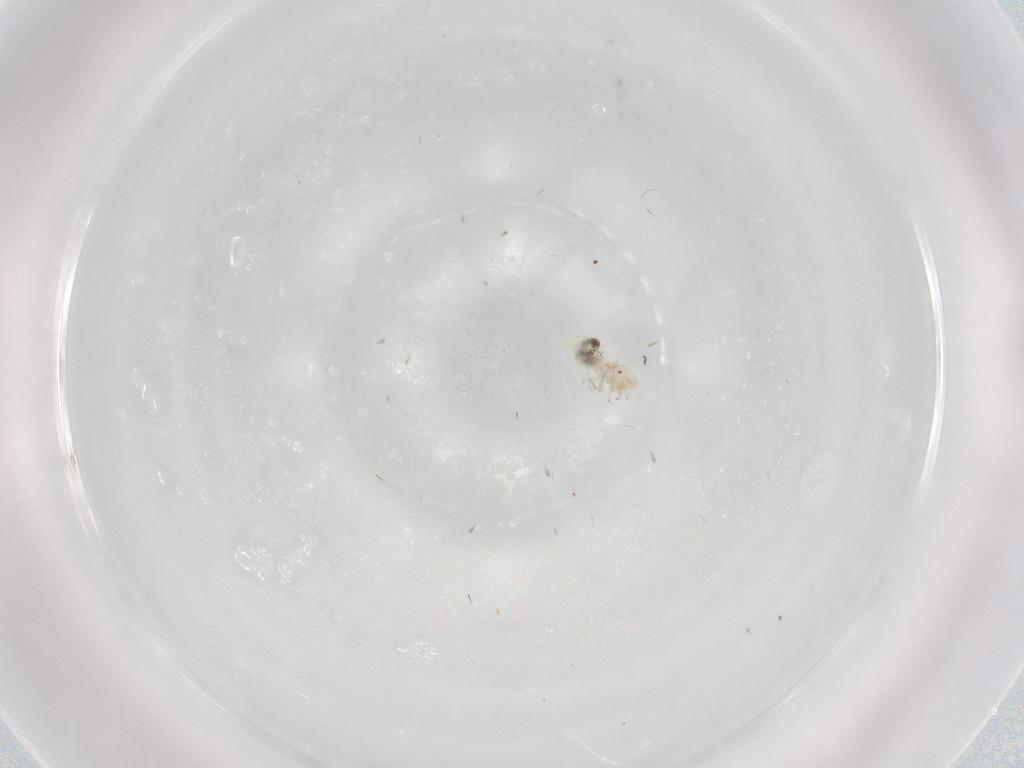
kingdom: Animalia
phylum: Arthropoda
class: Insecta
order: Psocodea
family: Caeciliusidae
